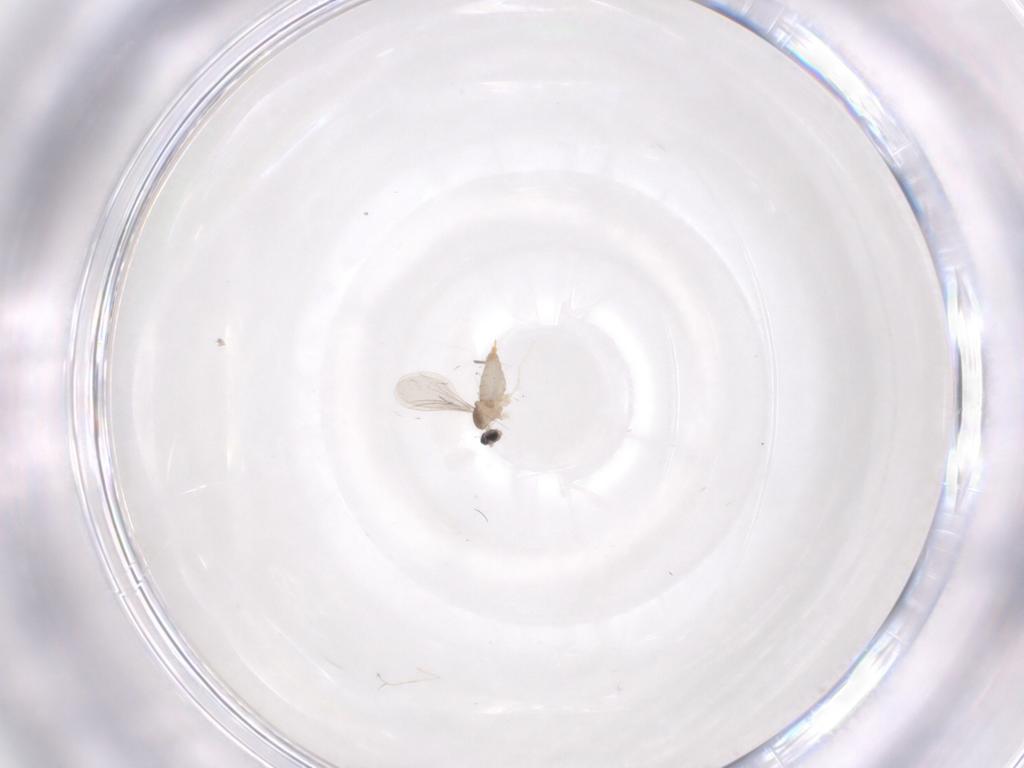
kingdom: Animalia
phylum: Arthropoda
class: Insecta
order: Diptera
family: Cecidomyiidae
